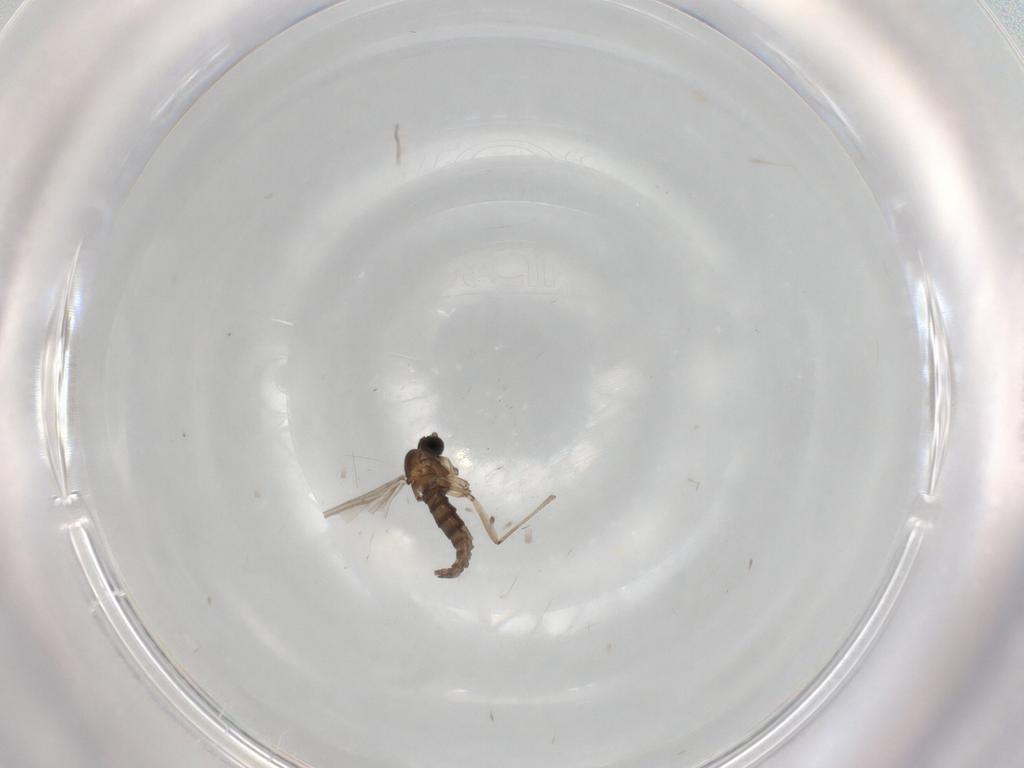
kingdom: Animalia
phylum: Arthropoda
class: Insecta
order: Diptera
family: Sciaridae
